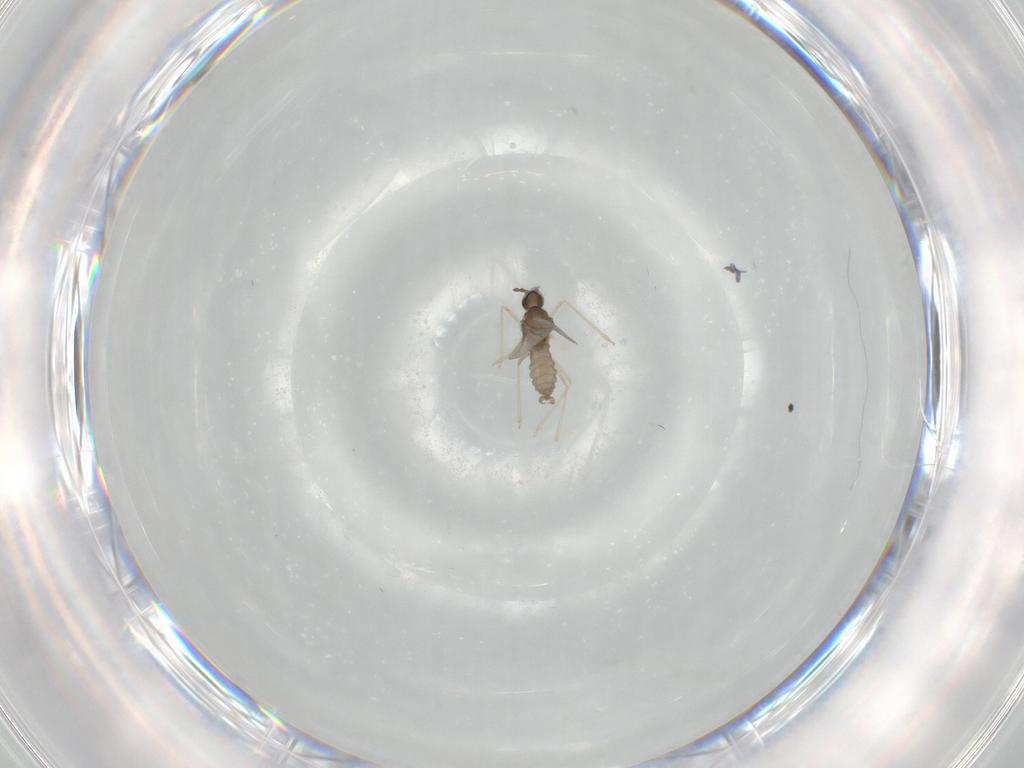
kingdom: Animalia
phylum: Arthropoda
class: Insecta
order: Diptera
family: Cecidomyiidae
